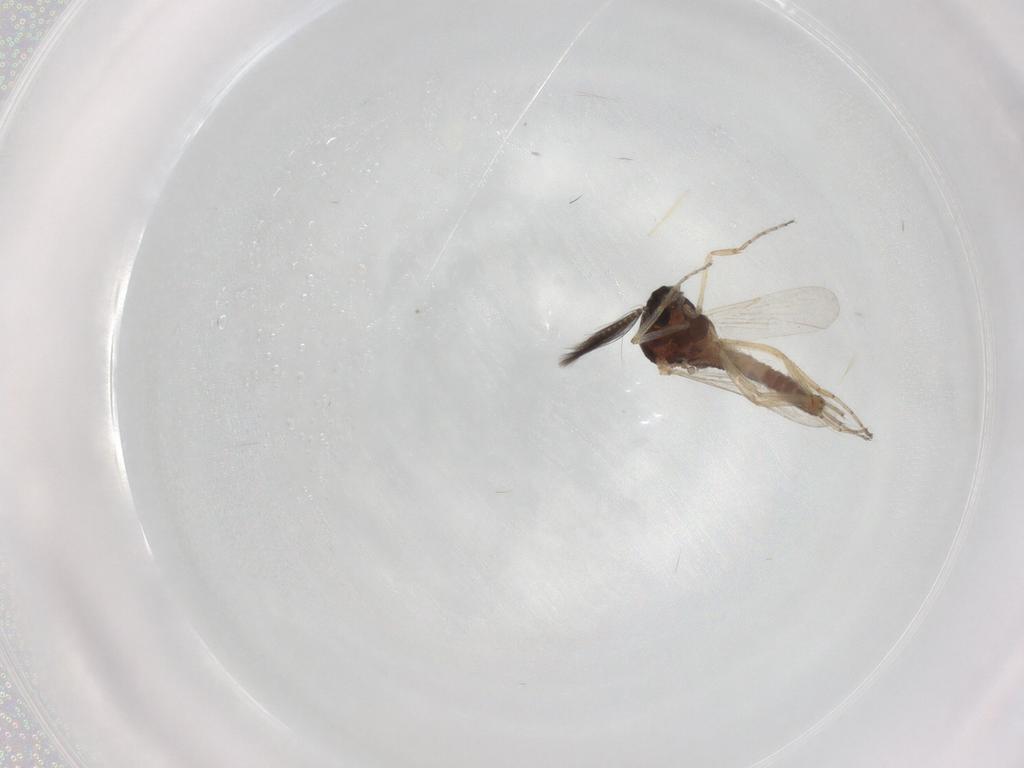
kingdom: Animalia
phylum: Arthropoda
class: Insecta
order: Diptera
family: Ceratopogonidae
